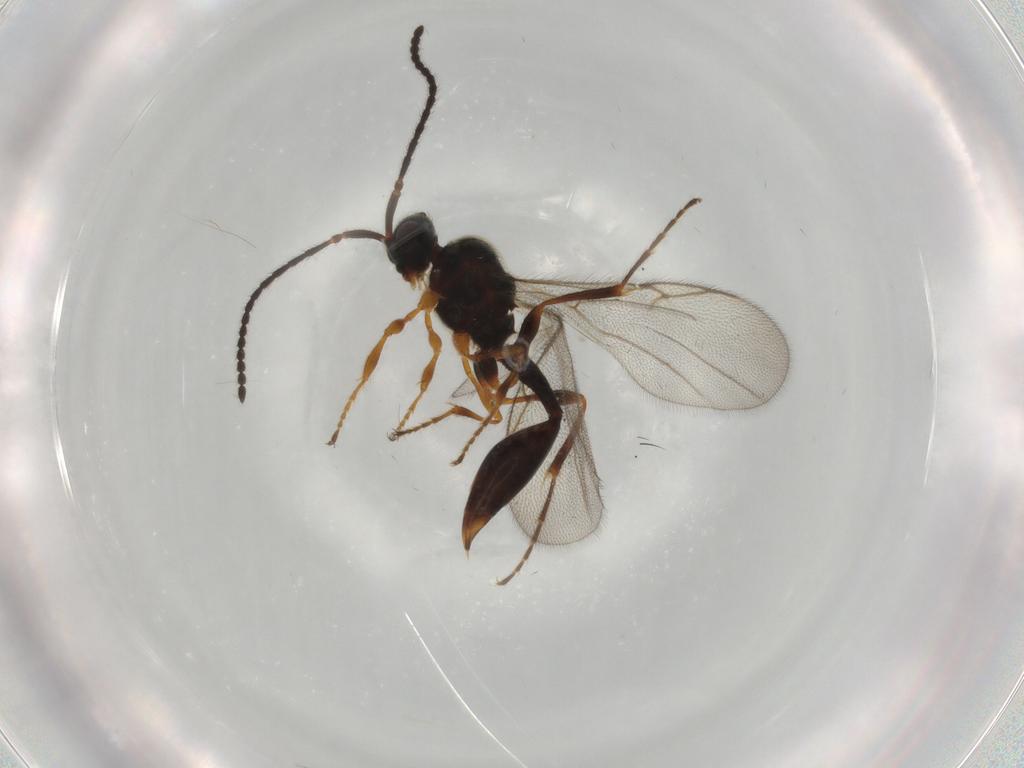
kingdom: Animalia
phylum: Arthropoda
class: Insecta
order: Hymenoptera
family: Diapriidae
